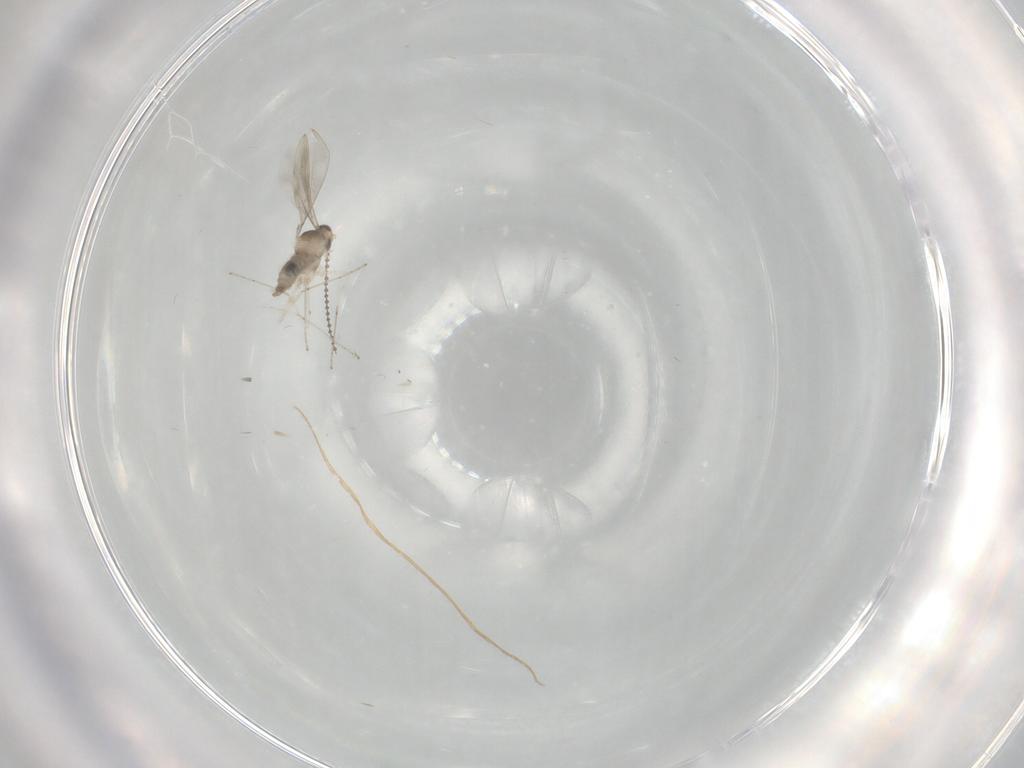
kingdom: Animalia
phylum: Arthropoda
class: Insecta
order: Diptera
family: Cecidomyiidae
